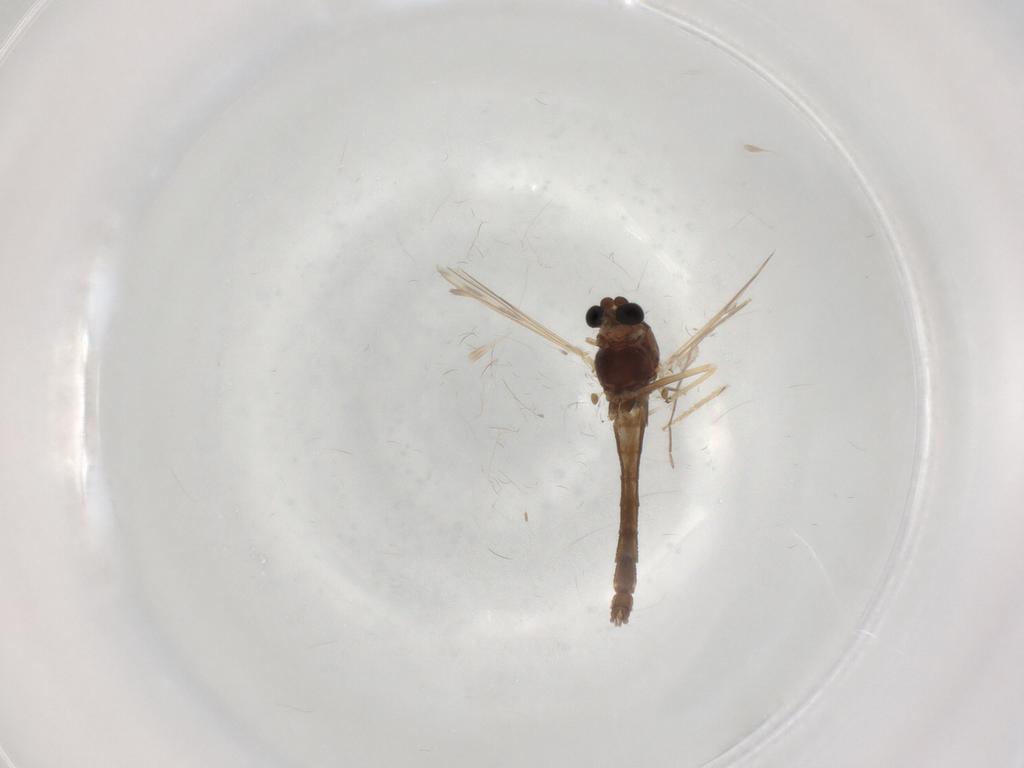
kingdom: Animalia
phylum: Arthropoda
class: Insecta
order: Diptera
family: Chironomidae
